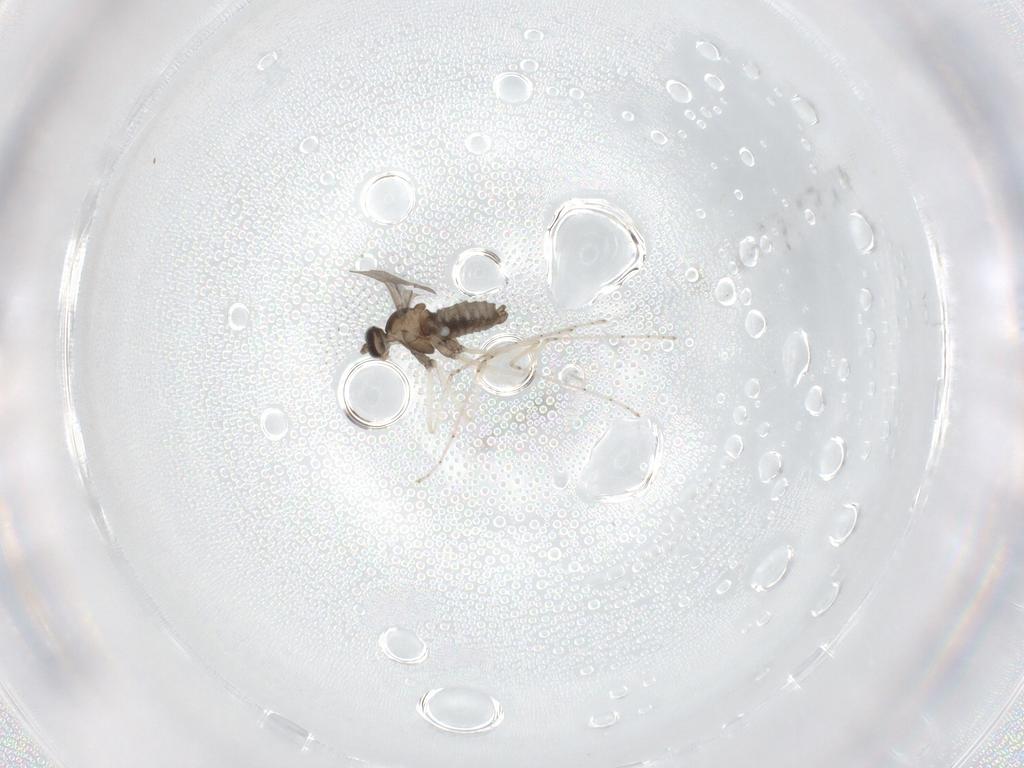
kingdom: Animalia
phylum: Arthropoda
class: Insecta
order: Diptera
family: Cecidomyiidae
